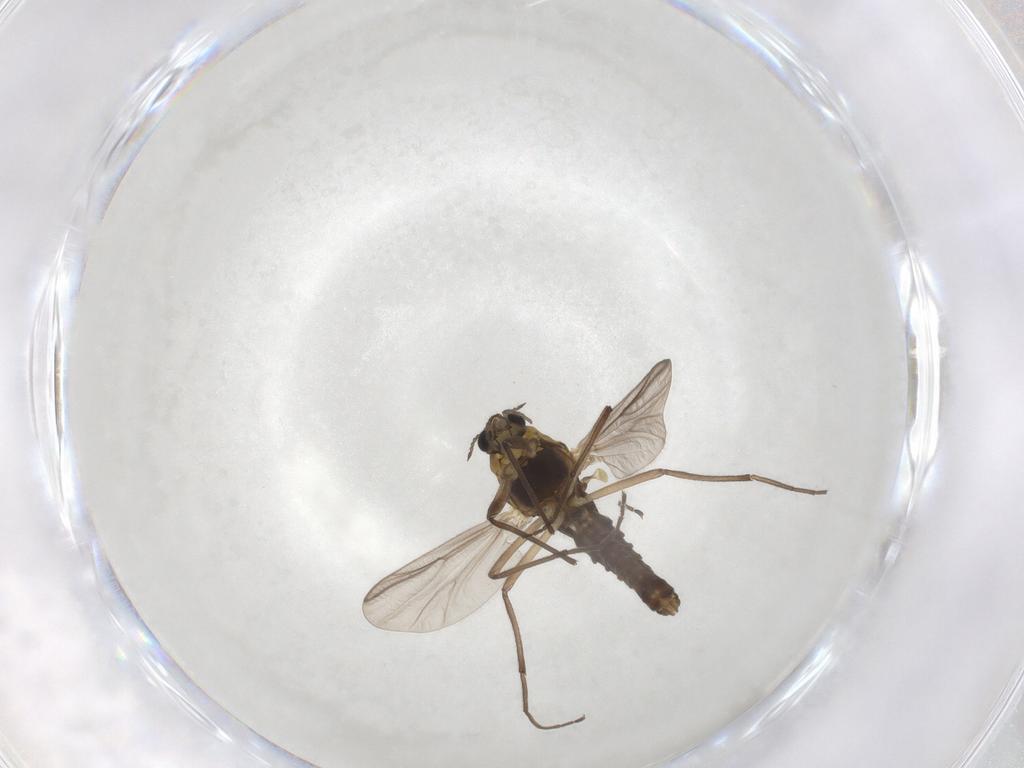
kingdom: Animalia
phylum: Arthropoda
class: Insecta
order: Diptera
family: Chironomidae
